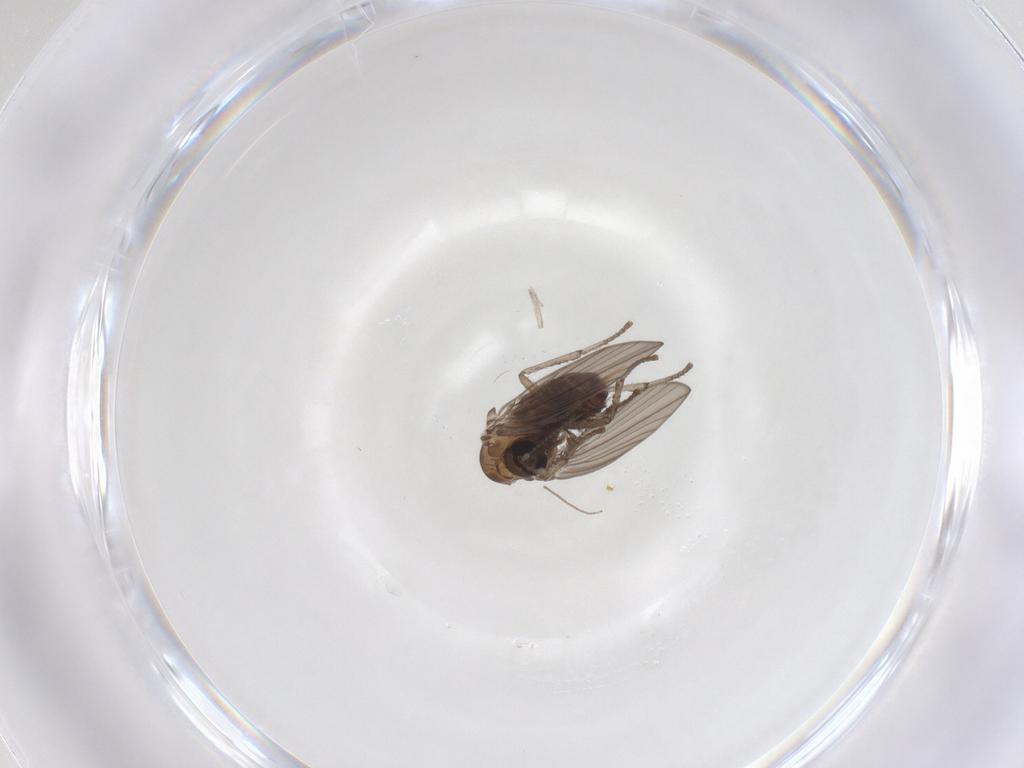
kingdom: Animalia
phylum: Arthropoda
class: Insecta
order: Diptera
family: Psychodidae
